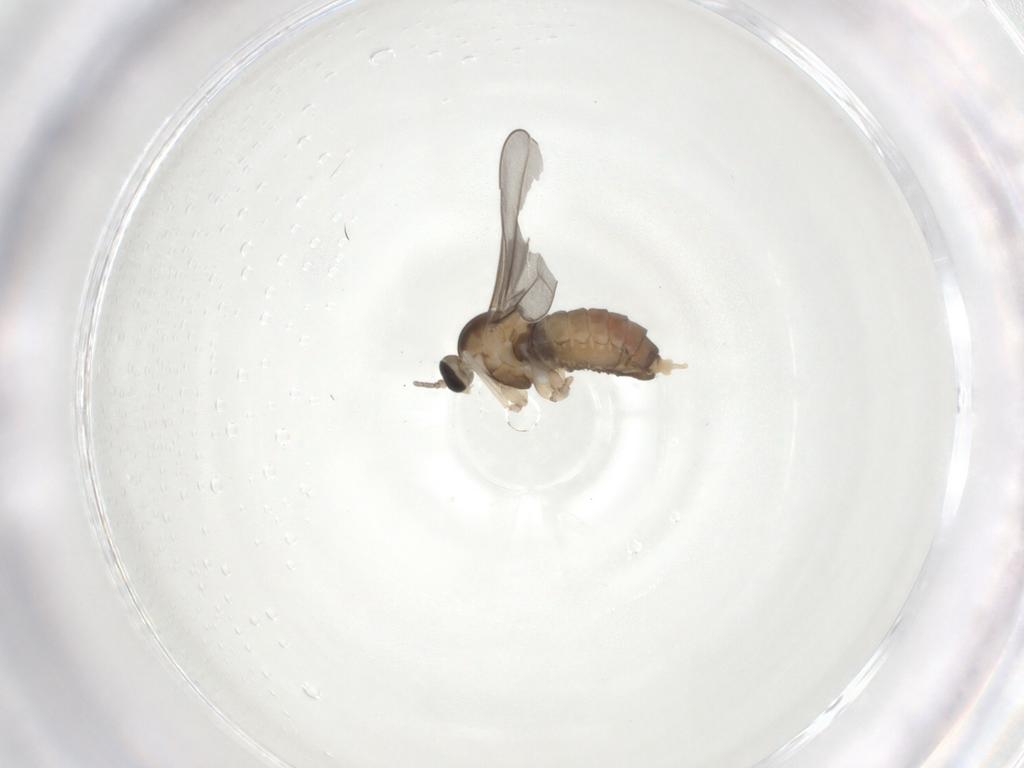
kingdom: Animalia
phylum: Arthropoda
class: Insecta
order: Diptera
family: Cecidomyiidae
